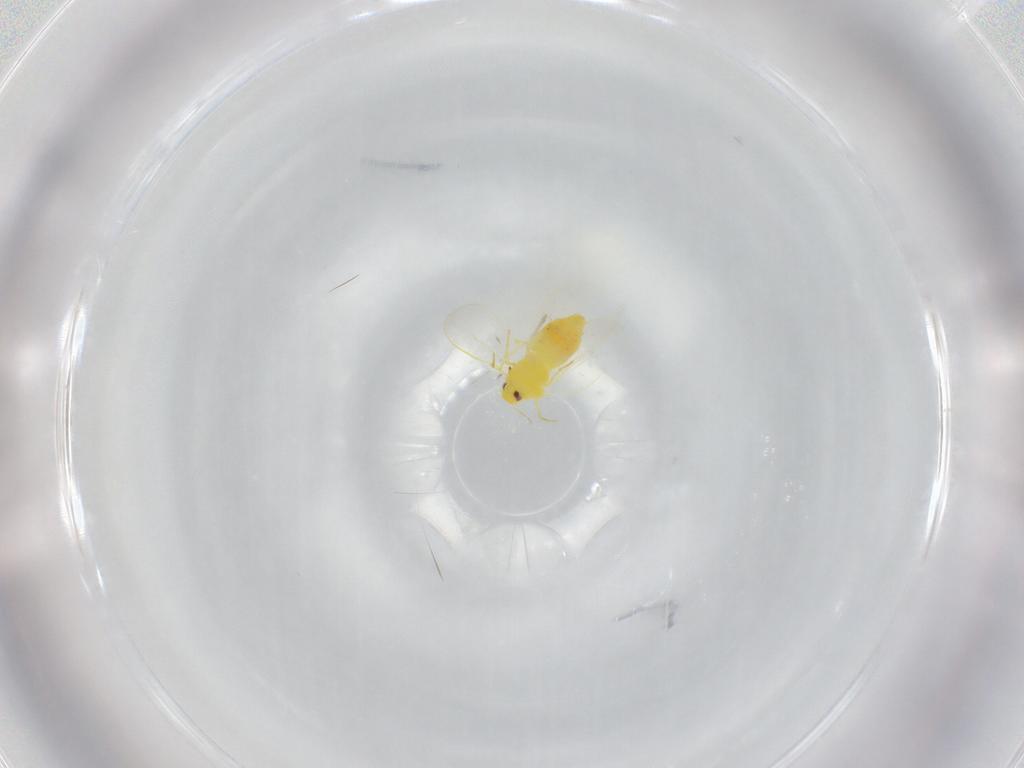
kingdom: Animalia
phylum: Arthropoda
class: Insecta
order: Hemiptera
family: Aleyrodidae
